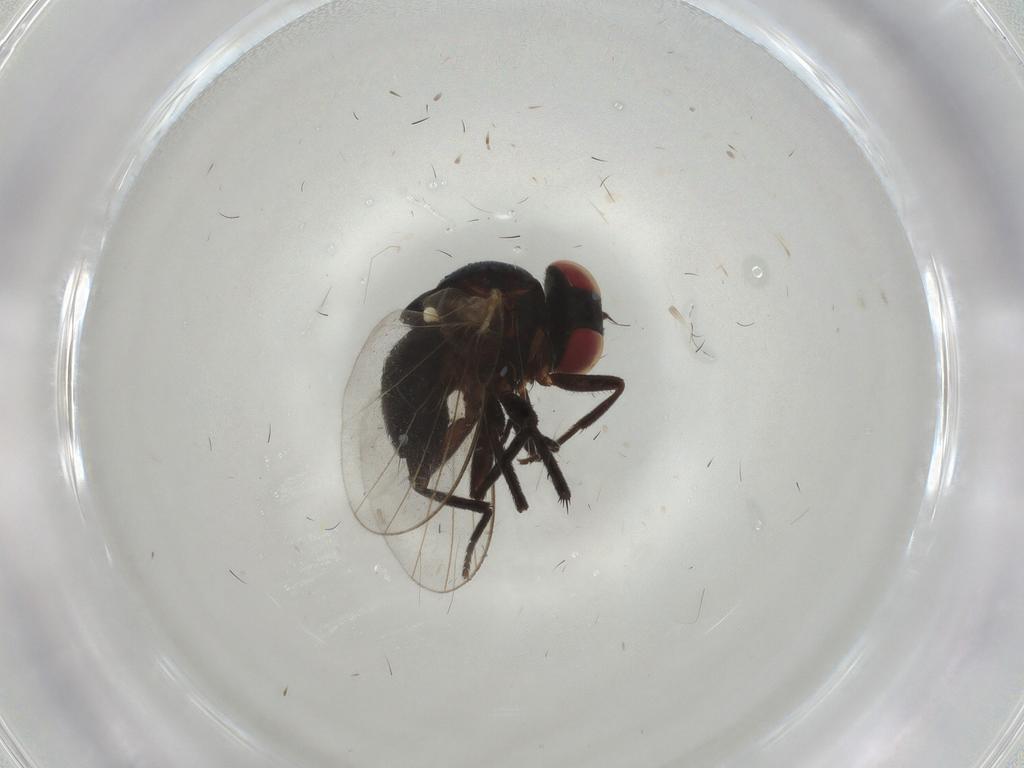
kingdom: Animalia
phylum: Arthropoda
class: Insecta
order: Diptera
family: Agromyzidae
